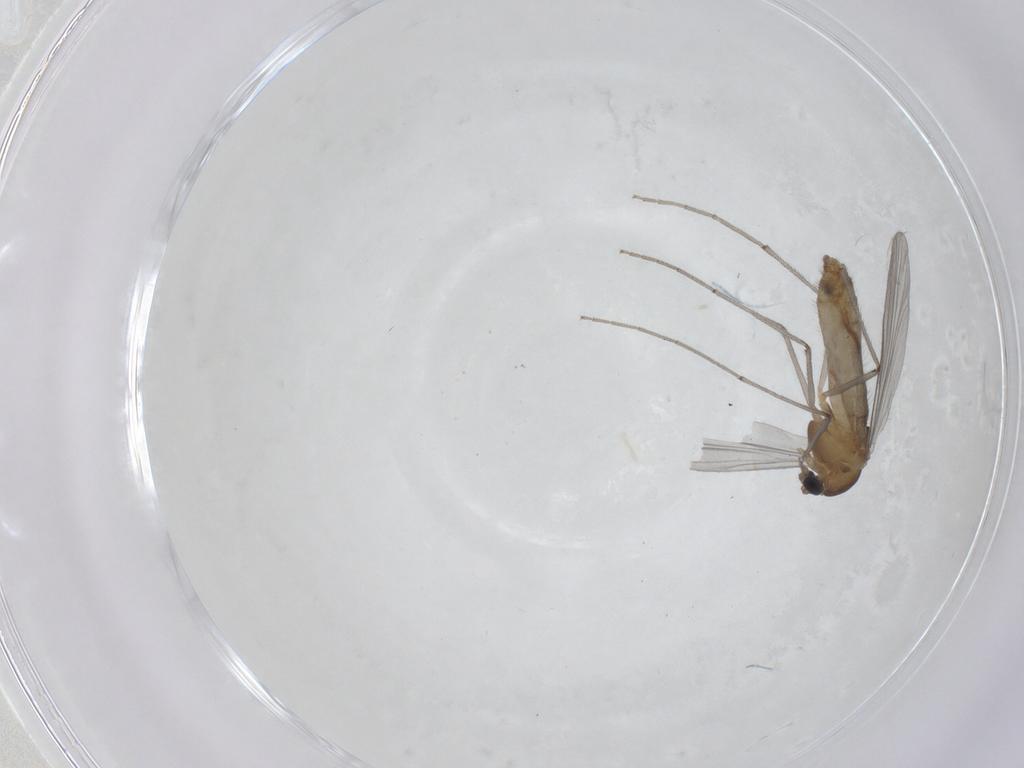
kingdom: Animalia
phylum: Arthropoda
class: Insecta
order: Diptera
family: Chironomidae
